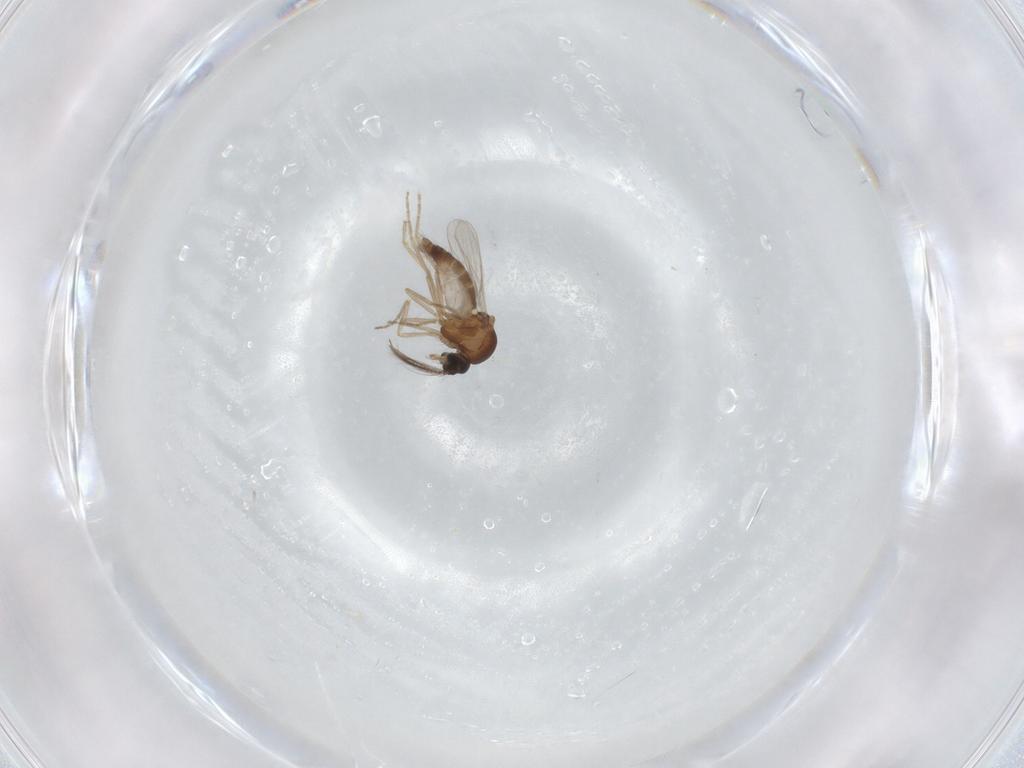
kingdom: Animalia
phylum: Arthropoda
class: Insecta
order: Diptera
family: Ceratopogonidae
